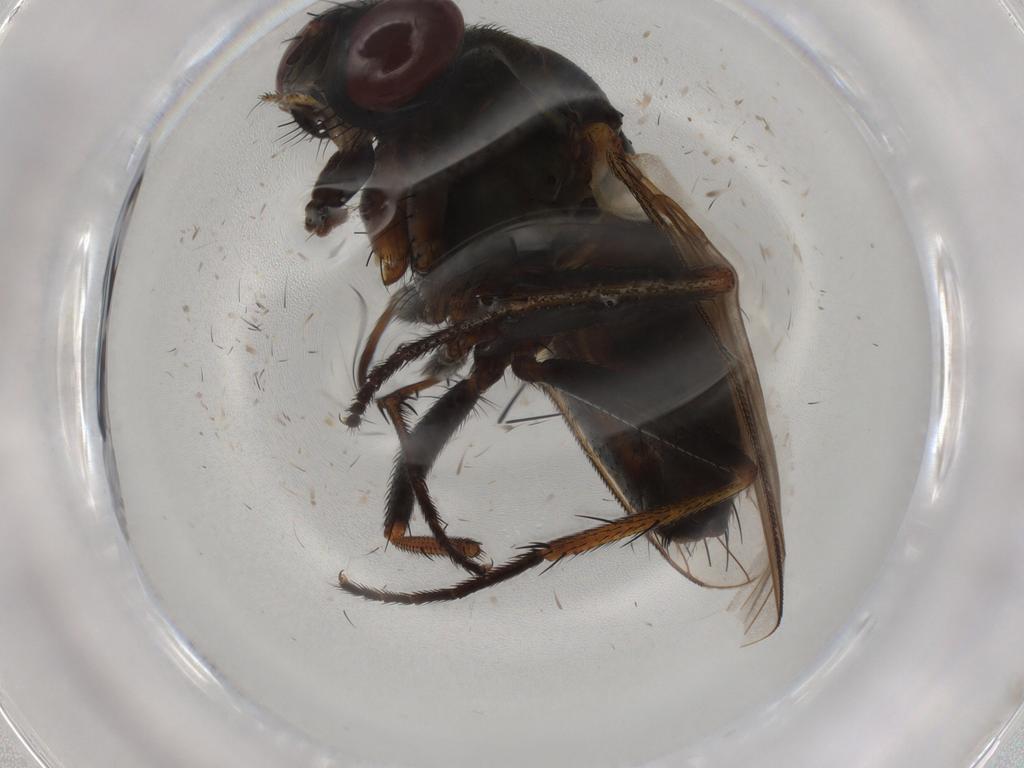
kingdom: Animalia
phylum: Arthropoda
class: Insecta
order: Diptera
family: Muscidae
